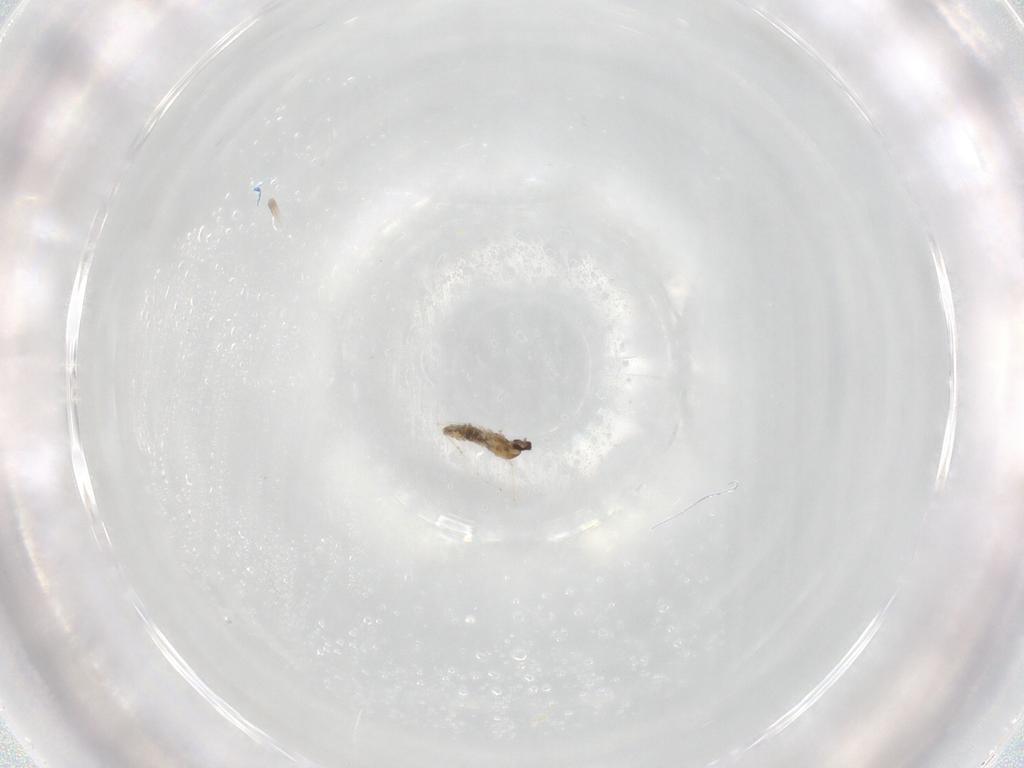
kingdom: Animalia
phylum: Arthropoda
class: Insecta
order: Diptera
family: Cecidomyiidae
